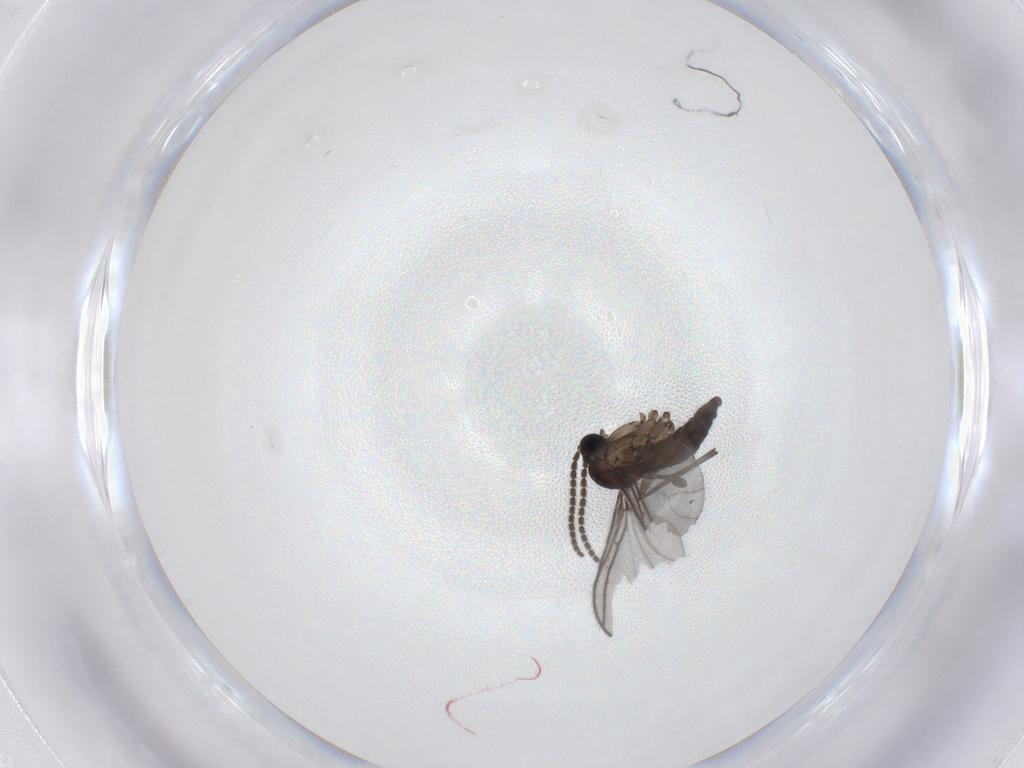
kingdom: Animalia
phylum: Arthropoda
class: Insecta
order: Diptera
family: Sciaridae
